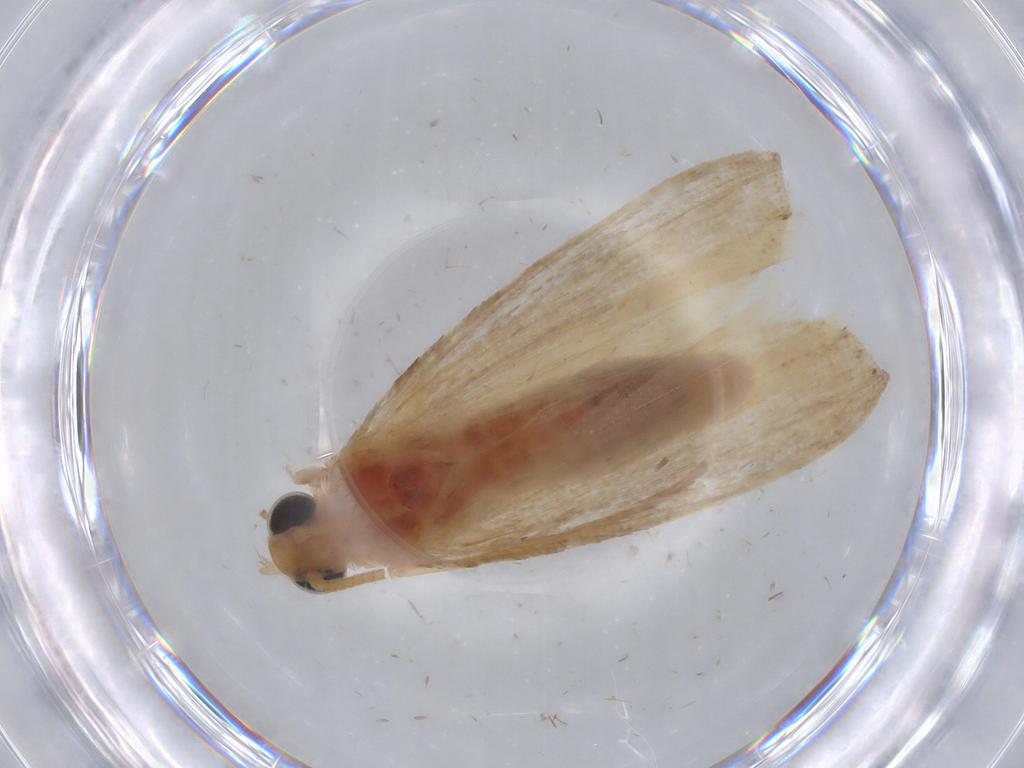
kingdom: Animalia
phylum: Arthropoda
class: Insecta
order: Lepidoptera
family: Pyralidae
